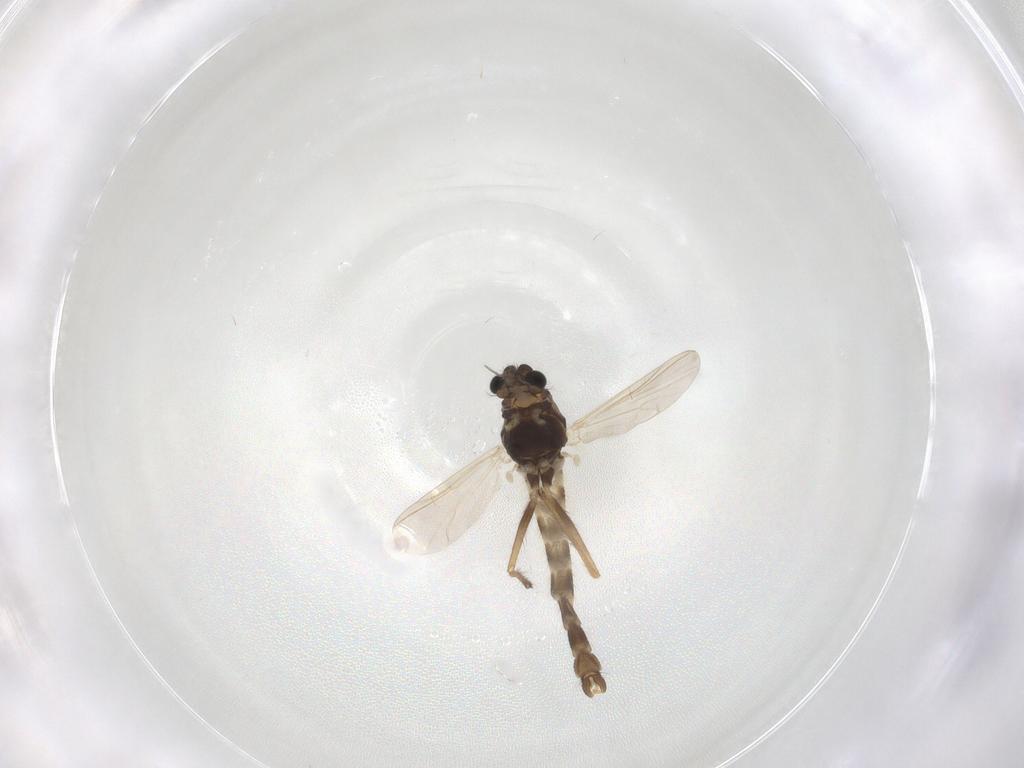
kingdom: Animalia
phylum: Arthropoda
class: Insecta
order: Diptera
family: Chironomidae
